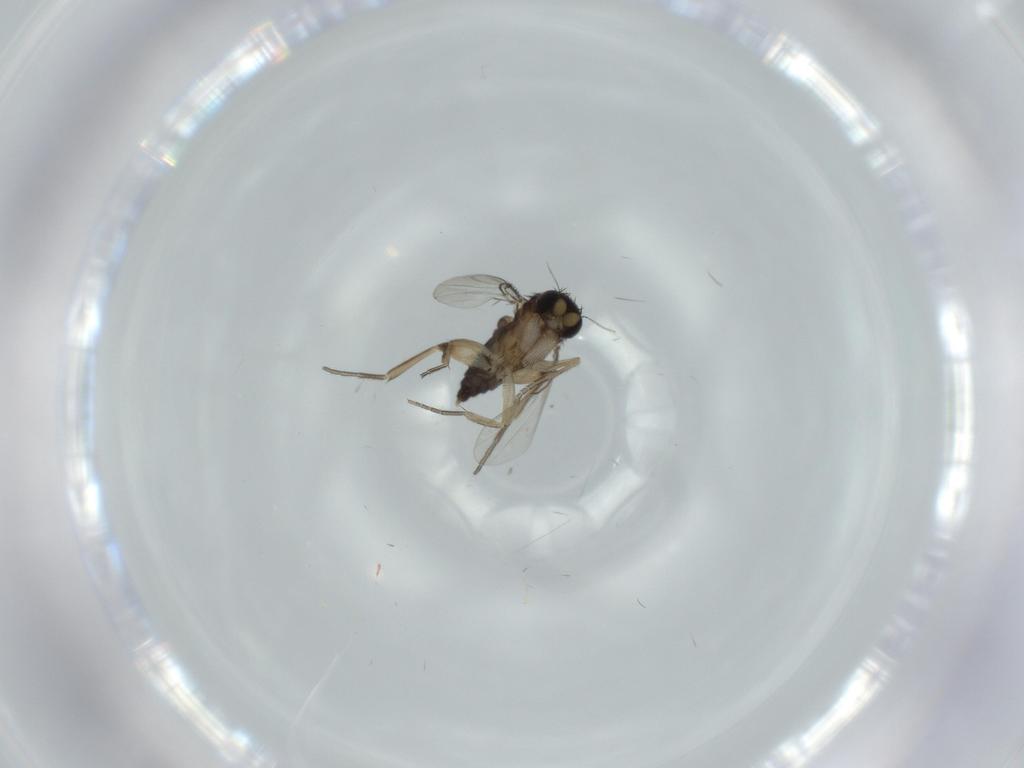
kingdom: Animalia
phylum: Arthropoda
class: Insecta
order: Diptera
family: Phoridae
